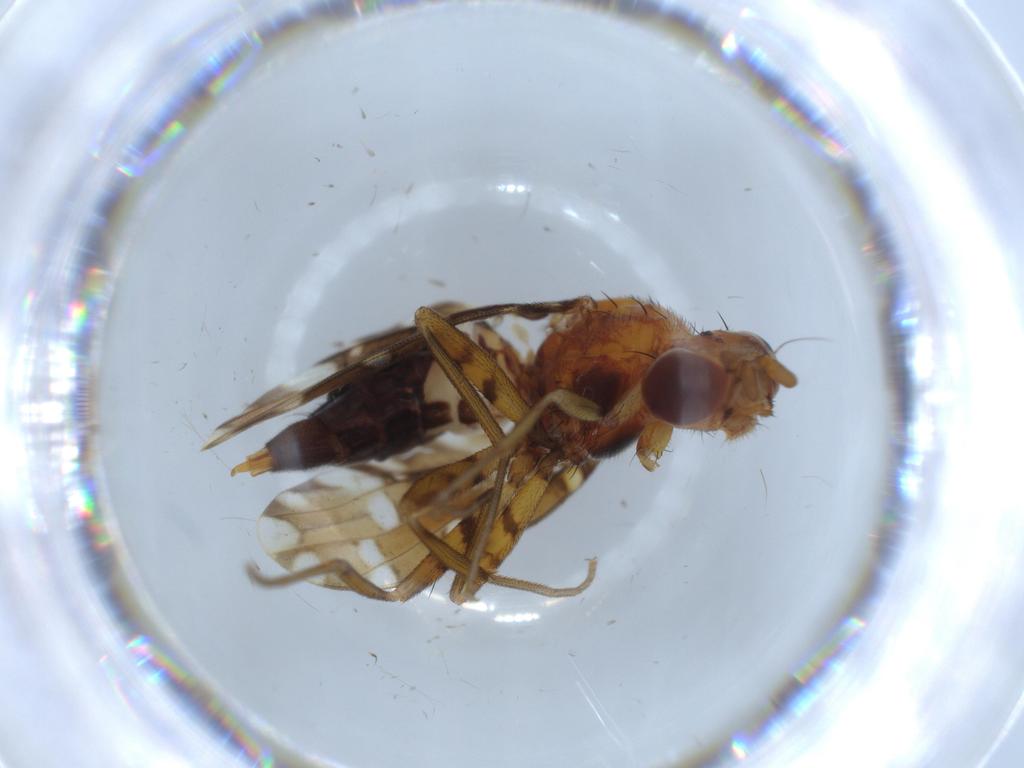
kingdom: Animalia
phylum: Arthropoda
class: Insecta
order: Diptera
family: Ulidiidae
